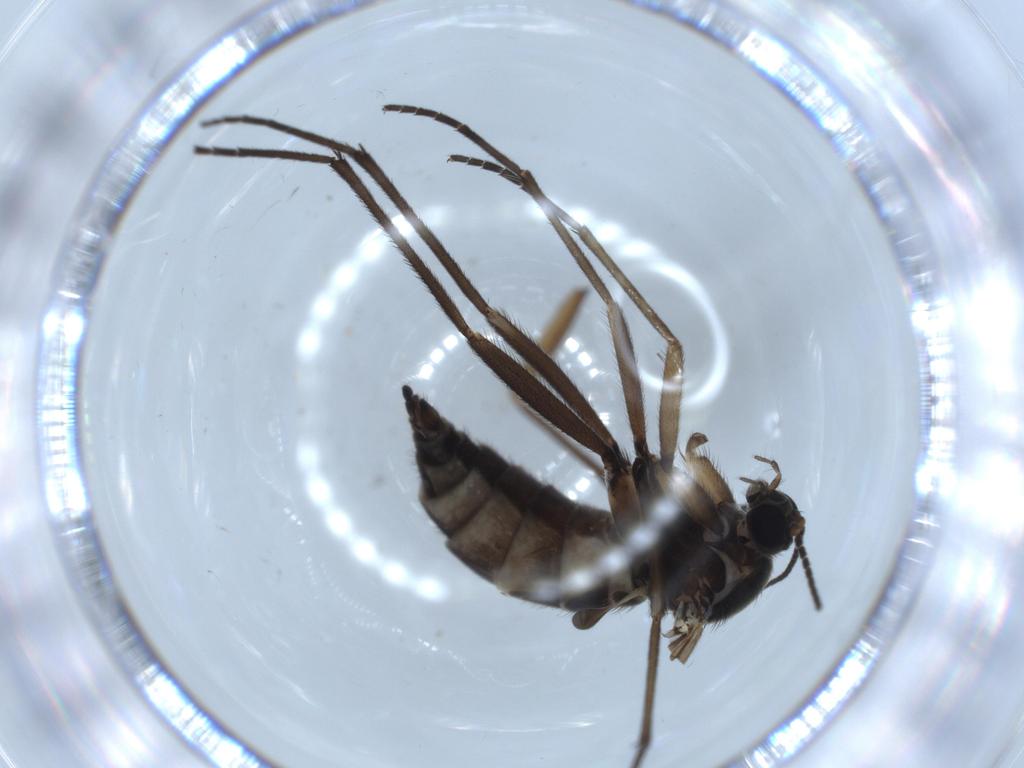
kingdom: Animalia
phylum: Arthropoda
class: Insecta
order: Diptera
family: Sciaridae
